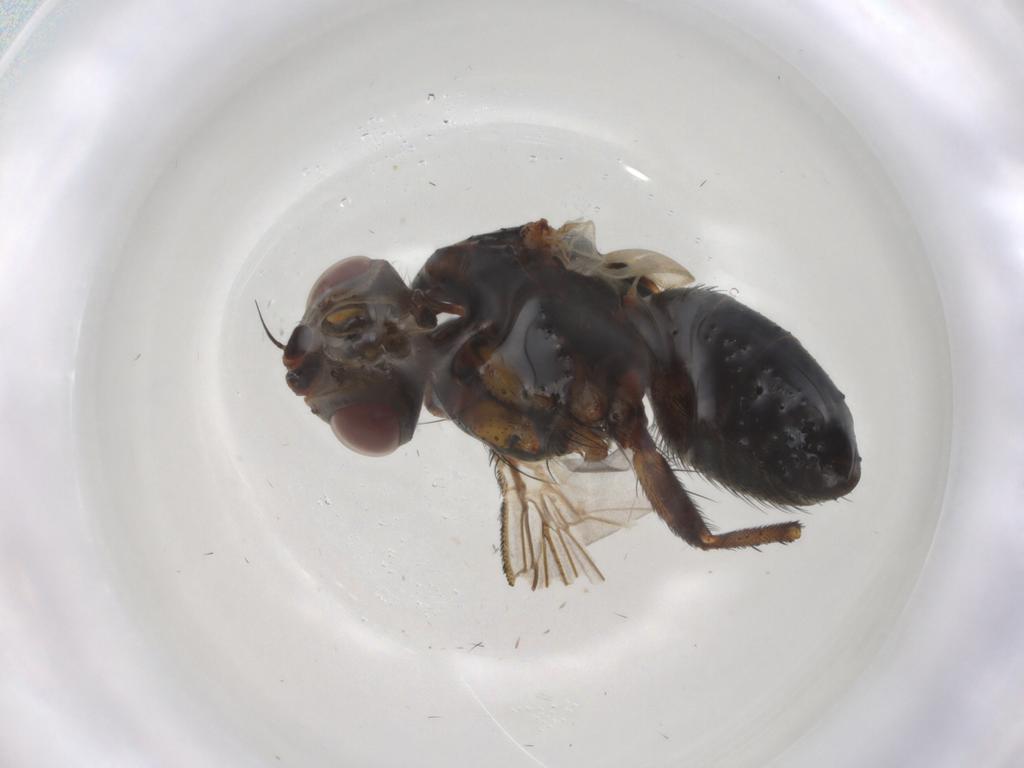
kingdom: Animalia
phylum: Arthropoda
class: Insecta
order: Diptera
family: Tachinidae
